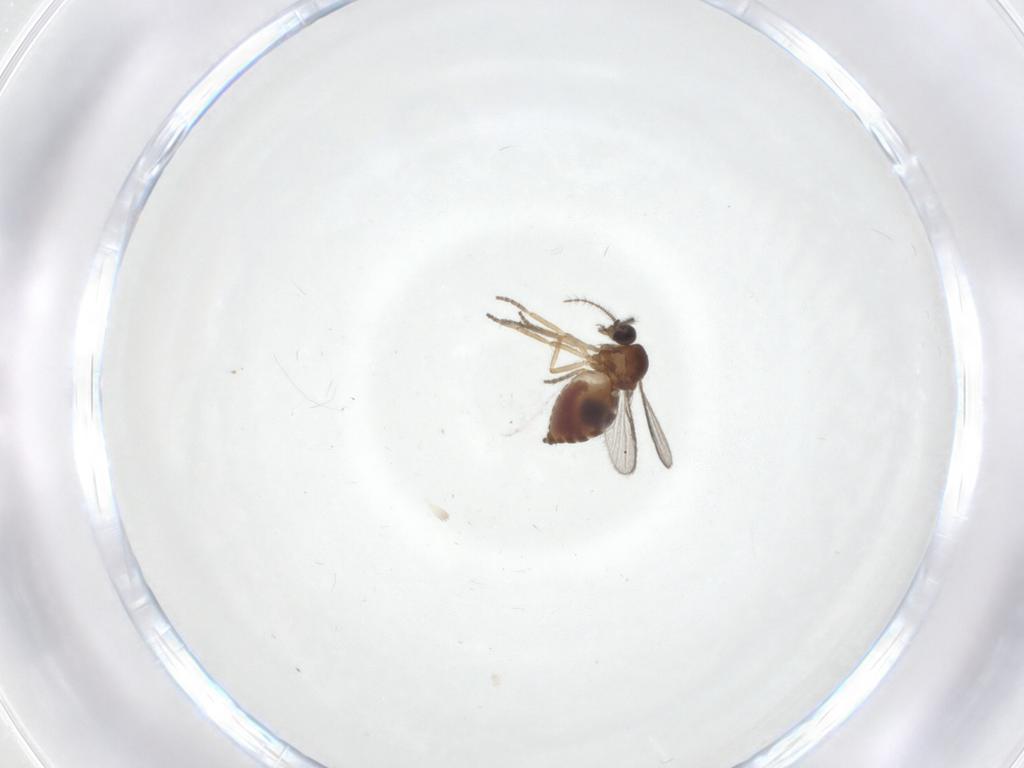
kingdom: Animalia
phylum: Arthropoda
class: Insecta
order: Diptera
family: Ceratopogonidae
